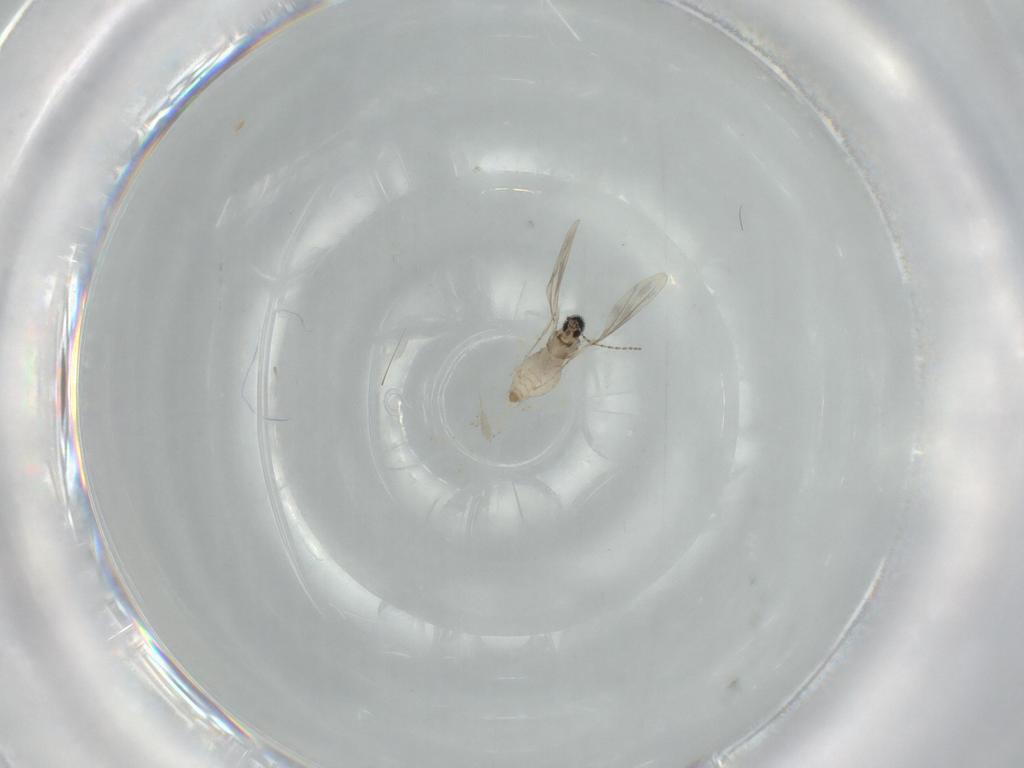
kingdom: Animalia
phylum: Arthropoda
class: Insecta
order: Diptera
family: Cecidomyiidae
